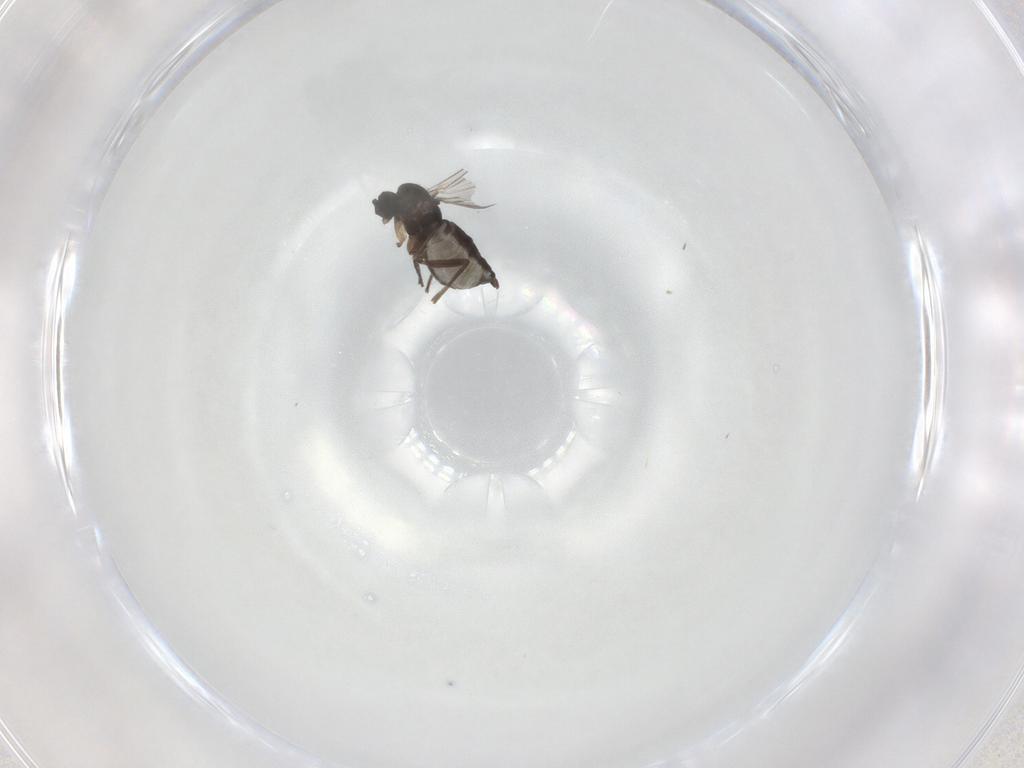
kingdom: Animalia
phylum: Arthropoda
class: Insecta
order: Diptera
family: Sciaridae
